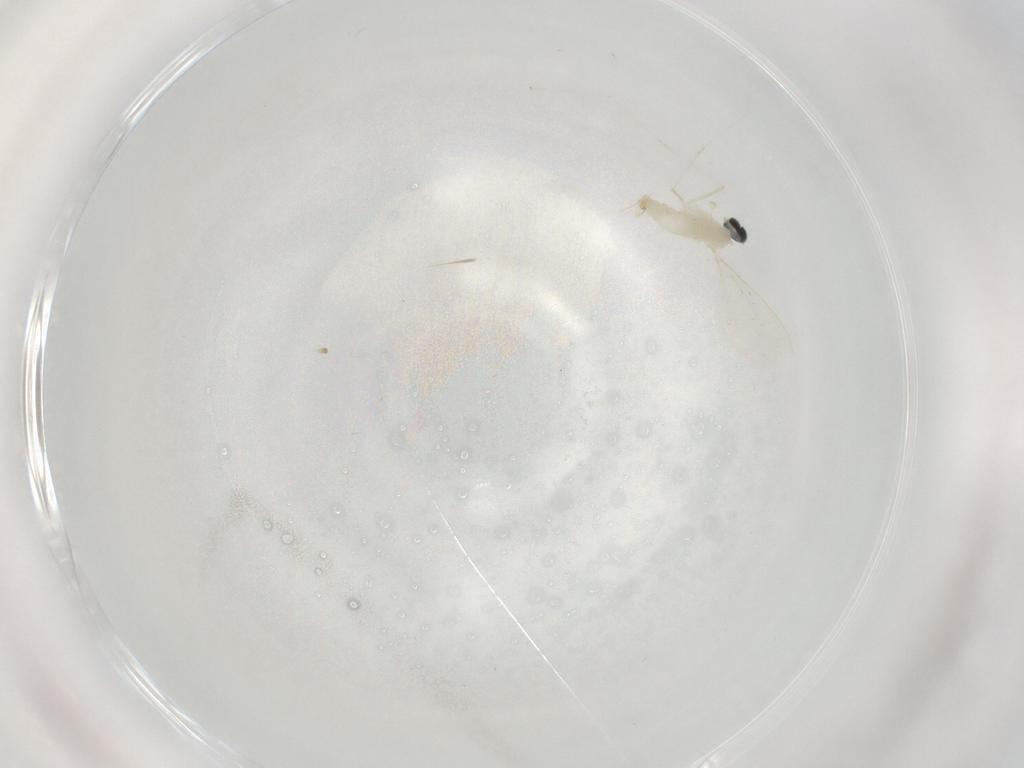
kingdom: Animalia
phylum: Arthropoda
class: Insecta
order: Diptera
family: Cecidomyiidae
